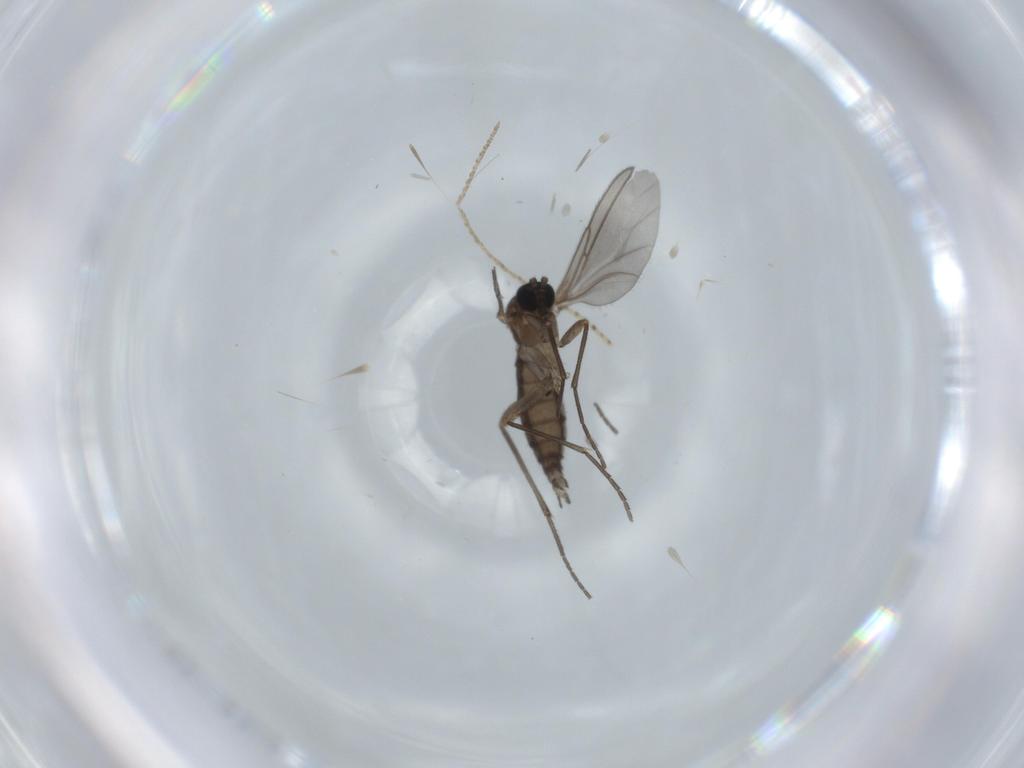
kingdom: Animalia
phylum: Arthropoda
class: Insecta
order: Diptera
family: Sciaridae
